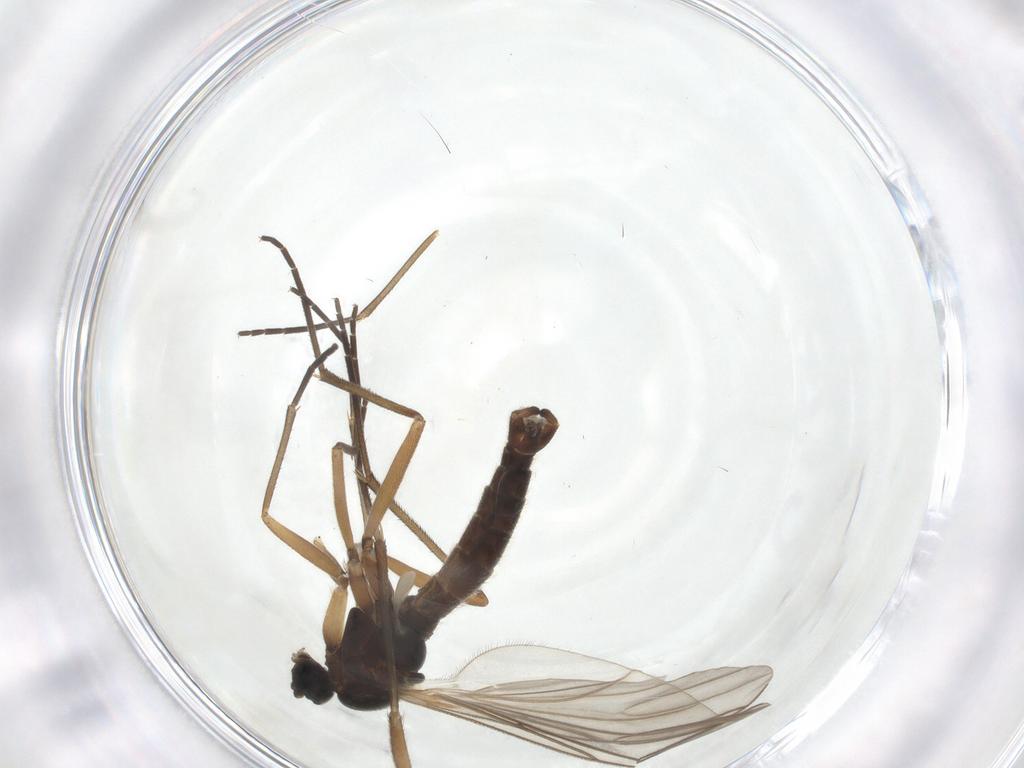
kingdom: Animalia
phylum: Arthropoda
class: Insecta
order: Diptera
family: Sciaridae
